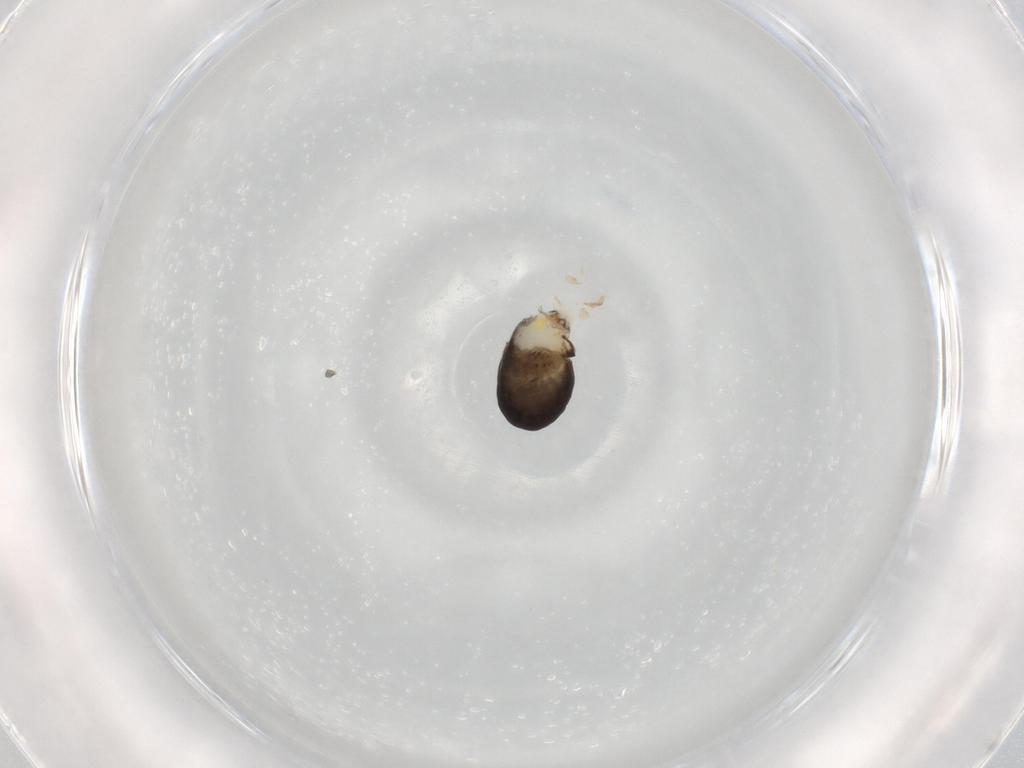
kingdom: Animalia
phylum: Arthropoda
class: Insecta
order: Hymenoptera
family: Dryinidae
